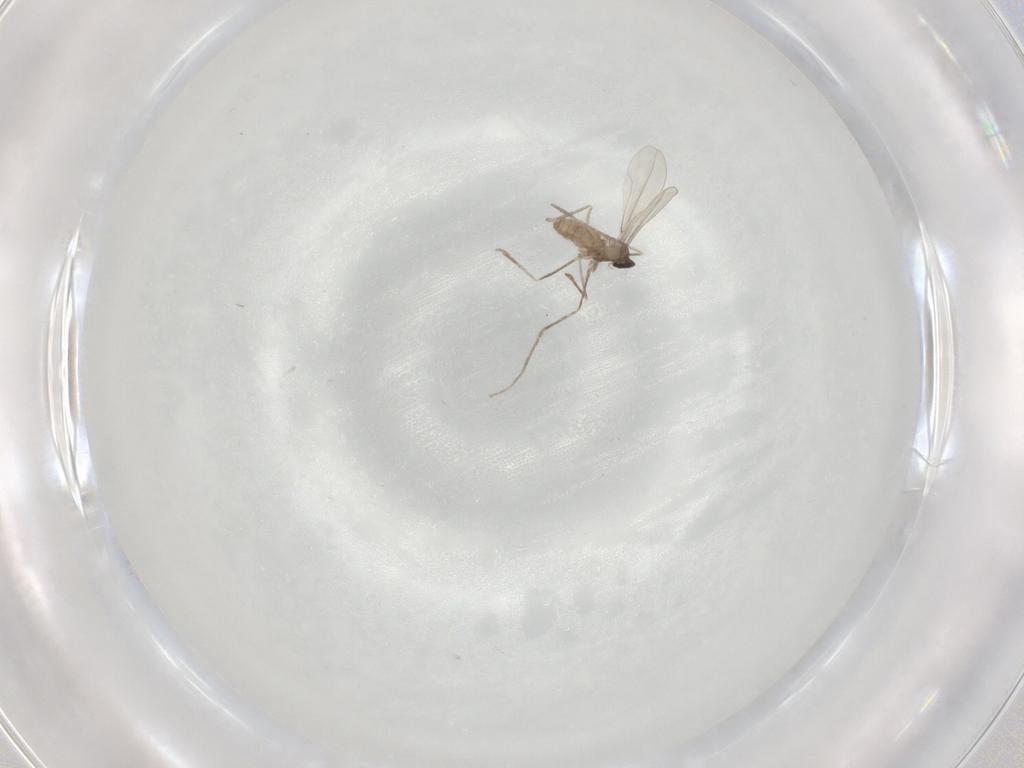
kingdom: Animalia
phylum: Arthropoda
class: Insecta
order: Diptera
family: Cecidomyiidae
